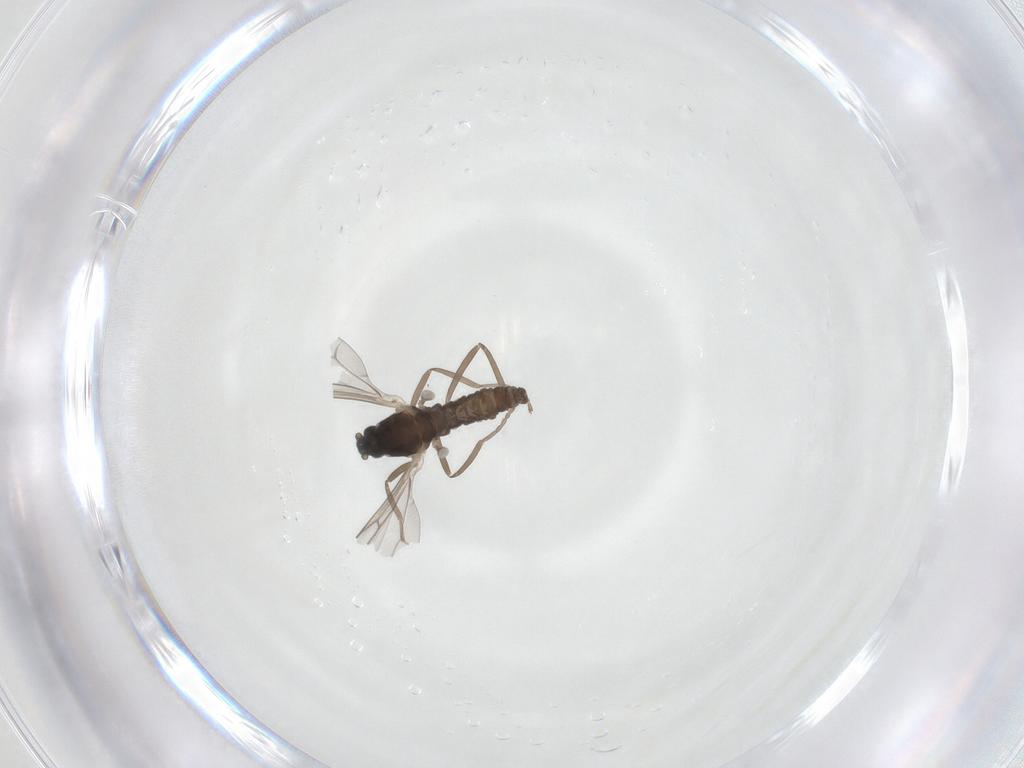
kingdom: Animalia
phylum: Arthropoda
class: Insecta
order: Diptera
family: Cecidomyiidae
